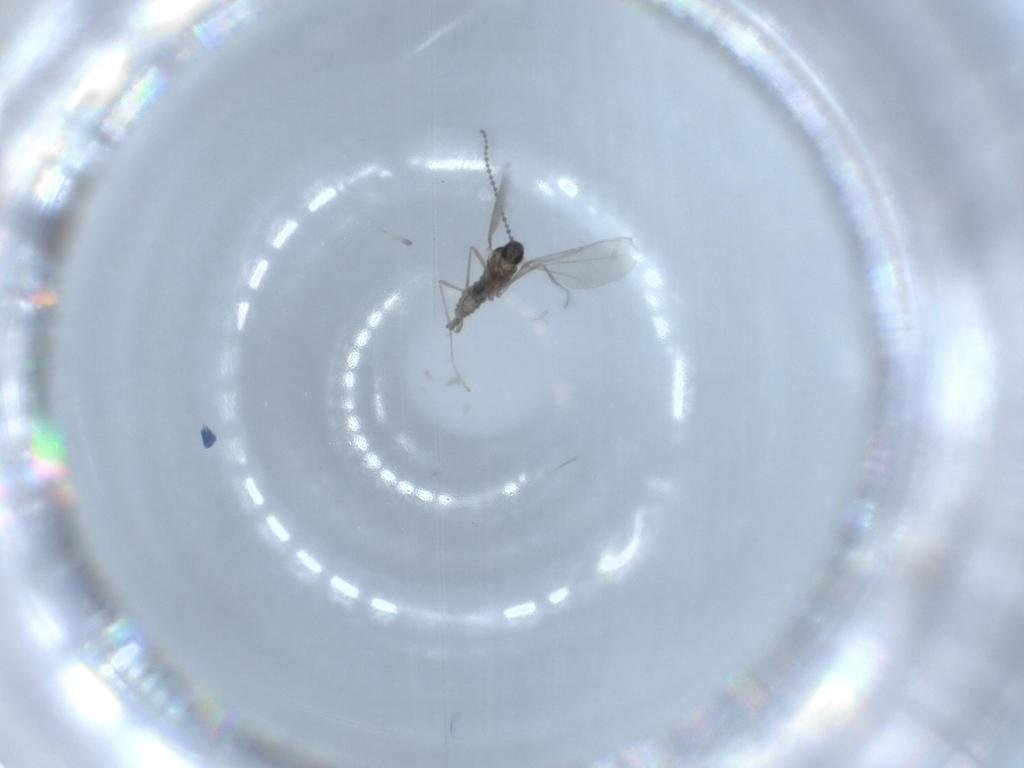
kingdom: Animalia
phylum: Arthropoda
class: Insecta
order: Diptera
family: Cecidomyiidae
